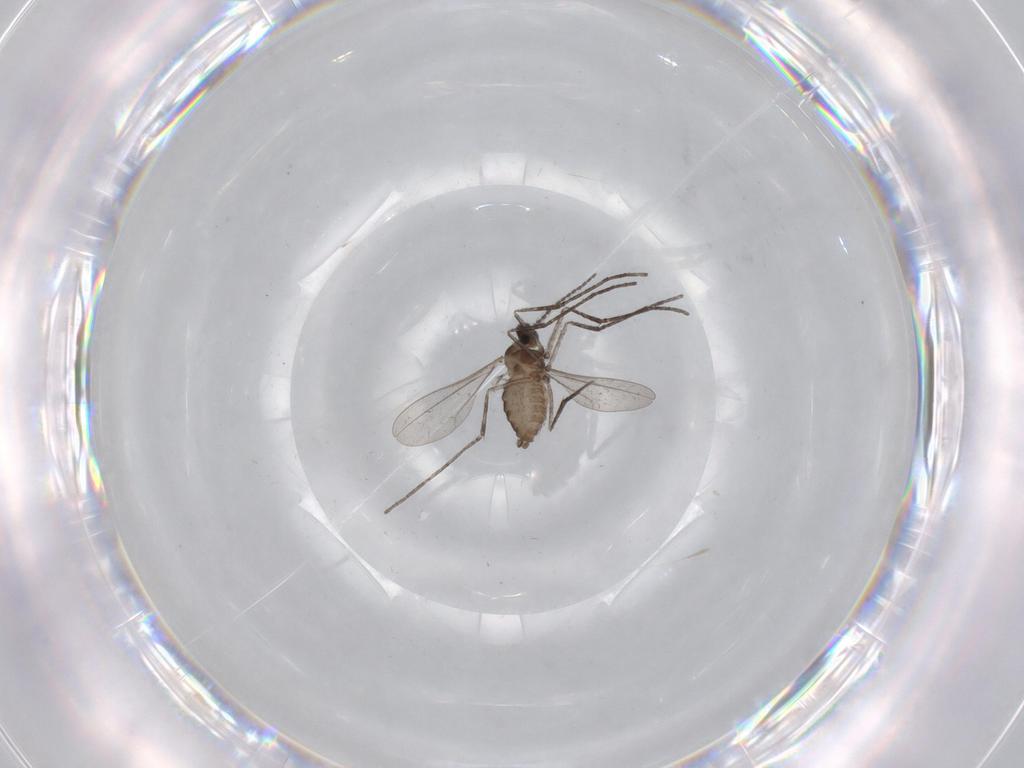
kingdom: Animalia
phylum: Arthropoda
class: Insecta
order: Diptera
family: Cecidomyiidae
